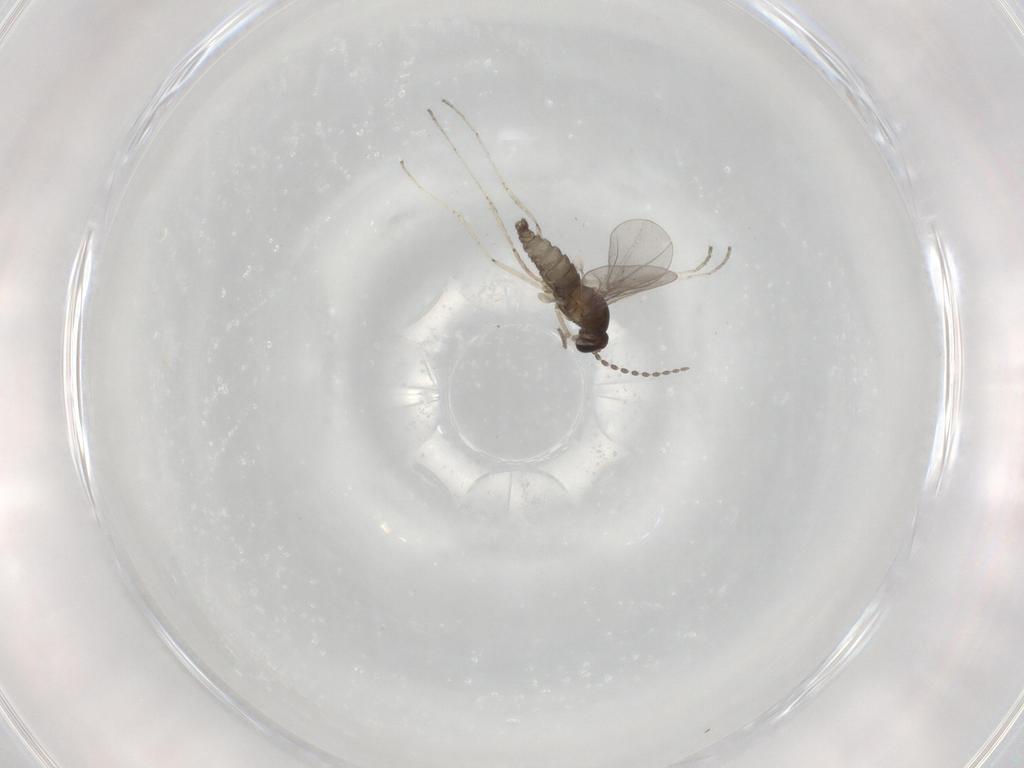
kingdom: Animalia
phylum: Arthropoda
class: Insecta
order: Diptera
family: Cecidomyiidae
